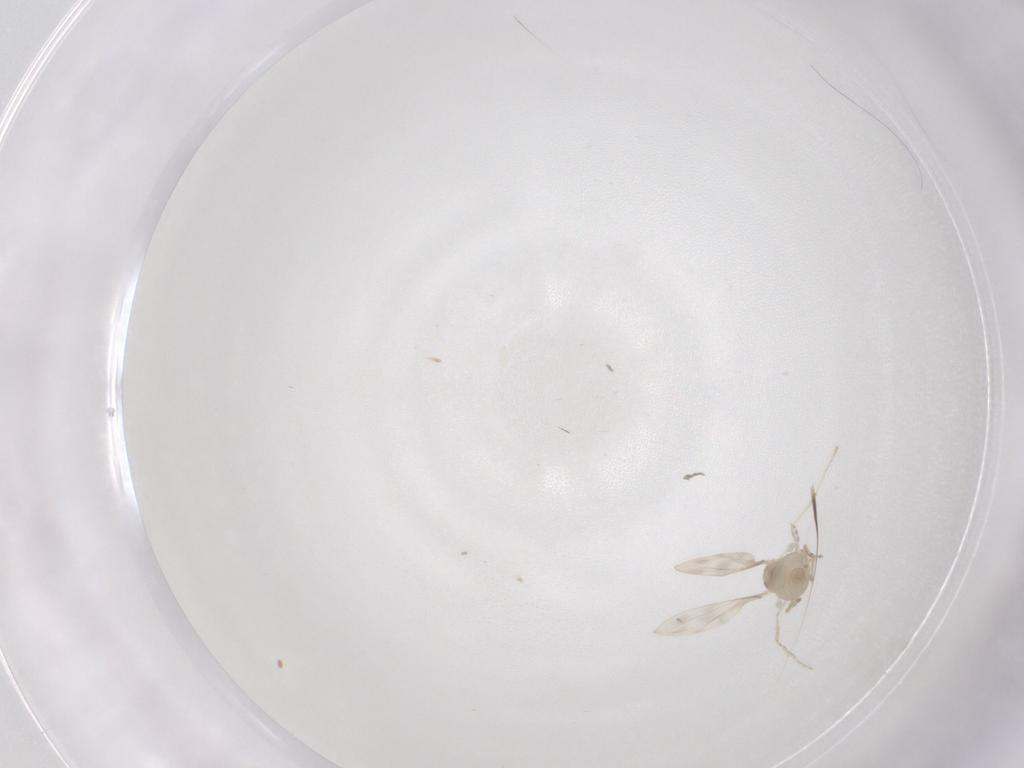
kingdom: Animalia
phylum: Arthropoda
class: Insecta
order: Diptera
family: Cecidomyiidae
